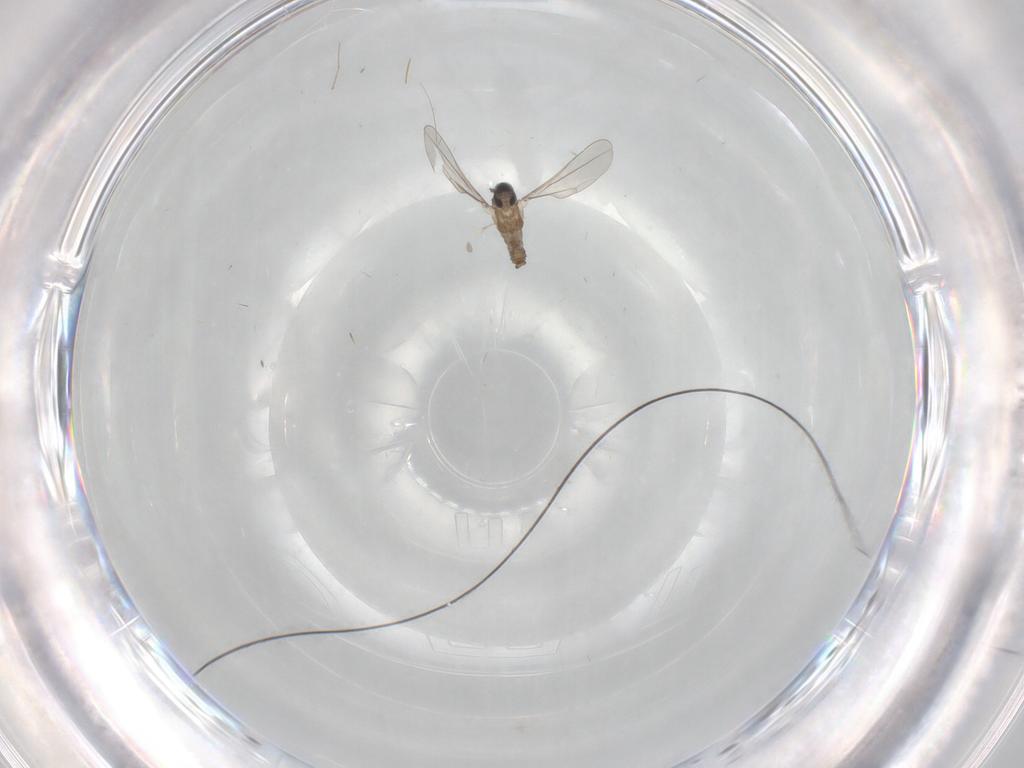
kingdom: Animalia
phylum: Arthropoda
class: Insecta
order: Diptera
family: Cecidomyiidae
